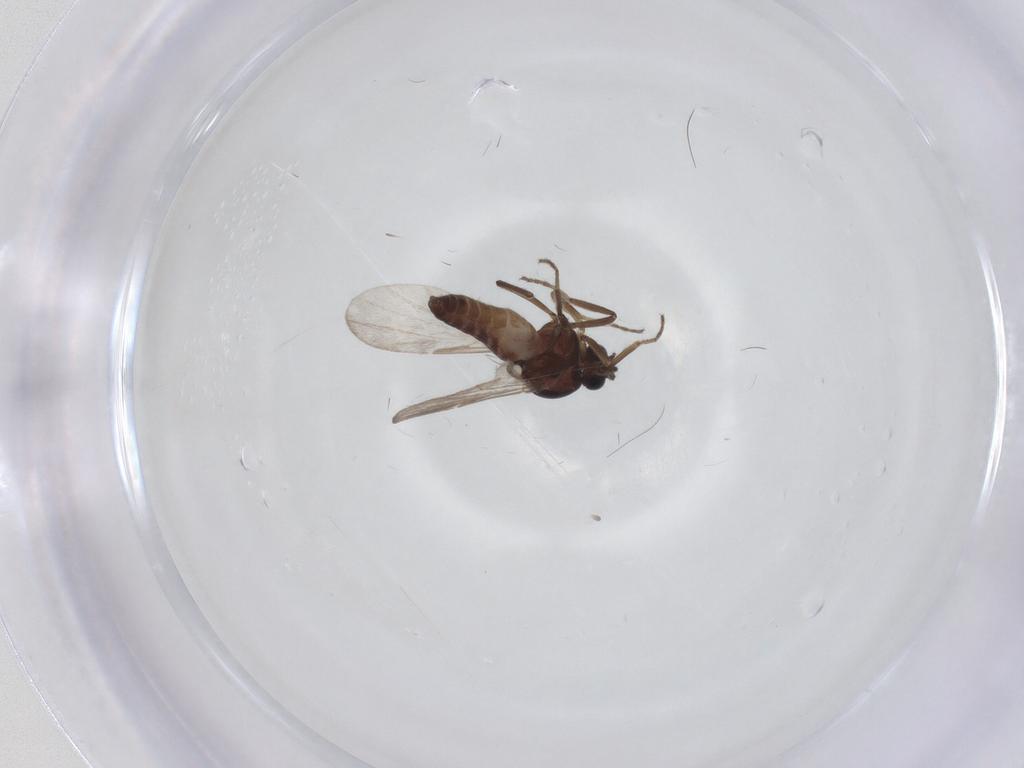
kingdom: Animalia
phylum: Arthropoda
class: Insecta
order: Diptera
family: Ceratopogonidae
